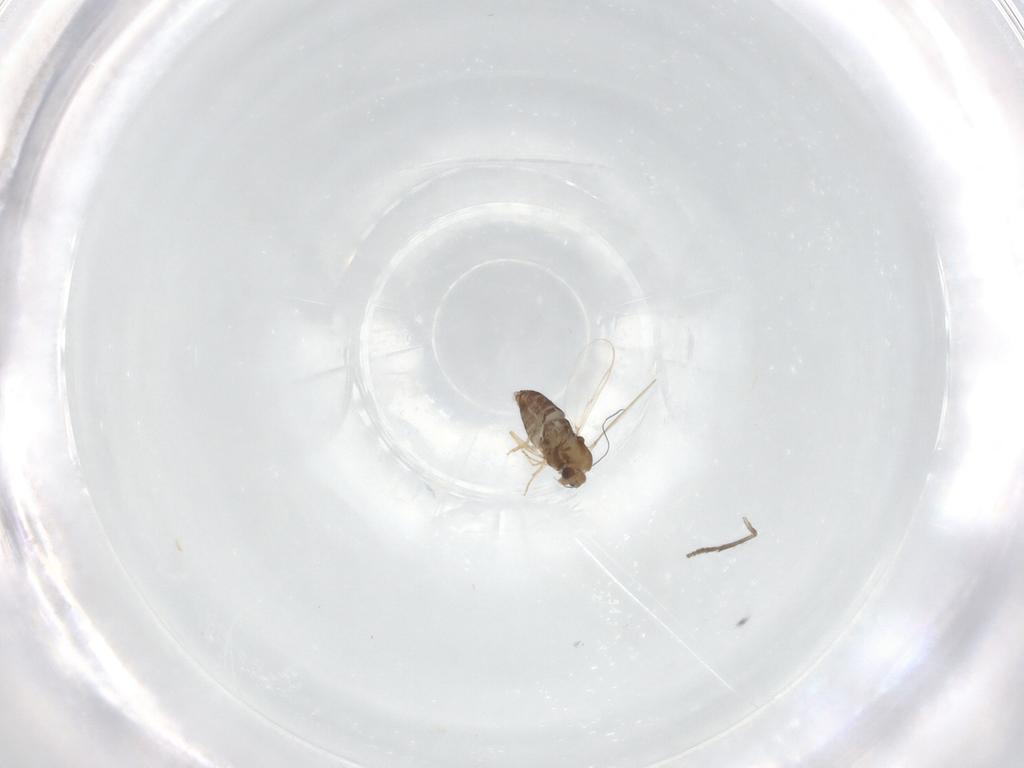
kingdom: Animalia
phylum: Arthropoda
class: Insecta
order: Diptera
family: Chironomidae
